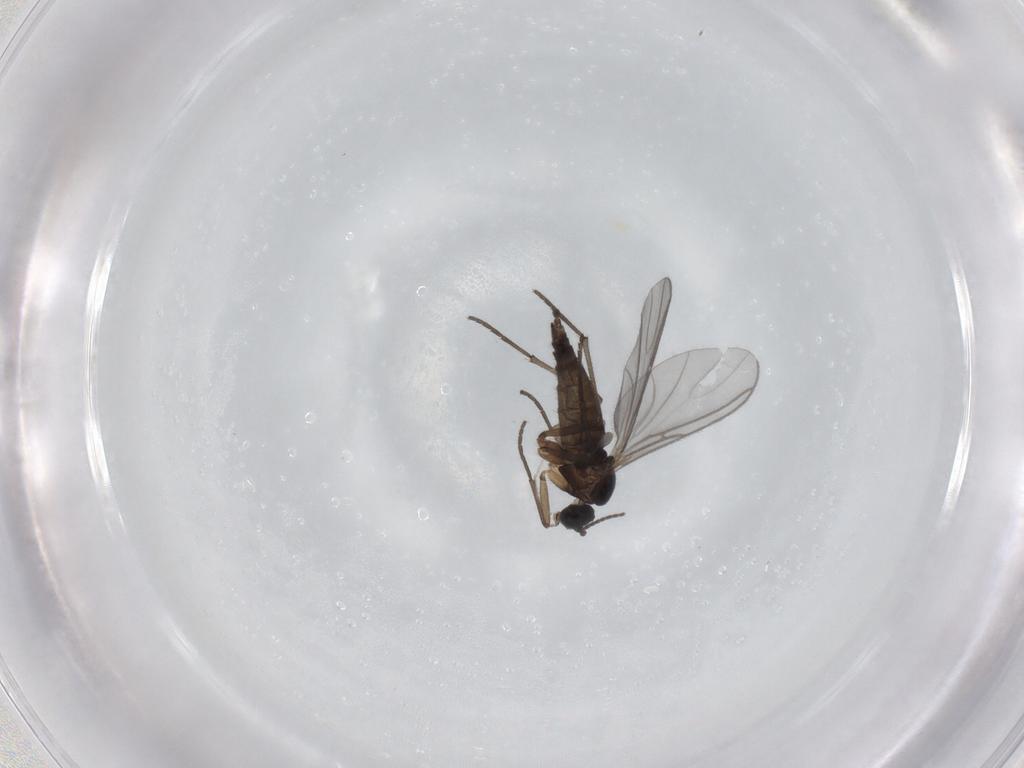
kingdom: Animalia
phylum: Arthropoda
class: Insecta
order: Diptera
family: Sciaridae
